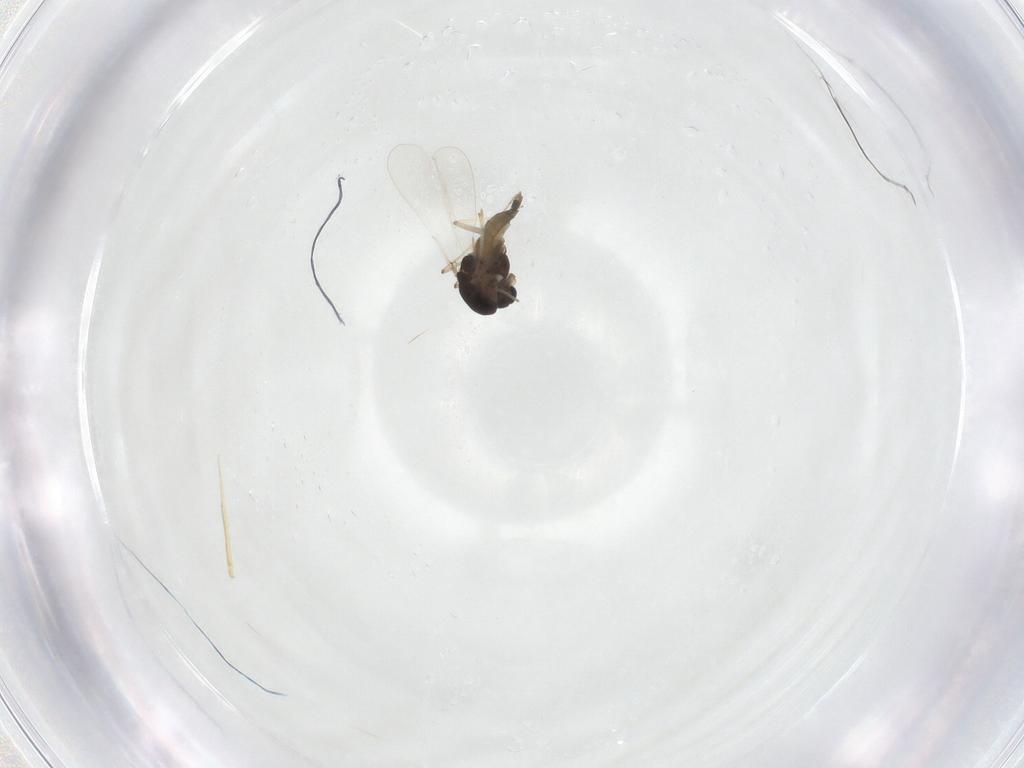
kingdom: Animalia
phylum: Arthropoda
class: Insecta
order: Diptera
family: Chironomidae
